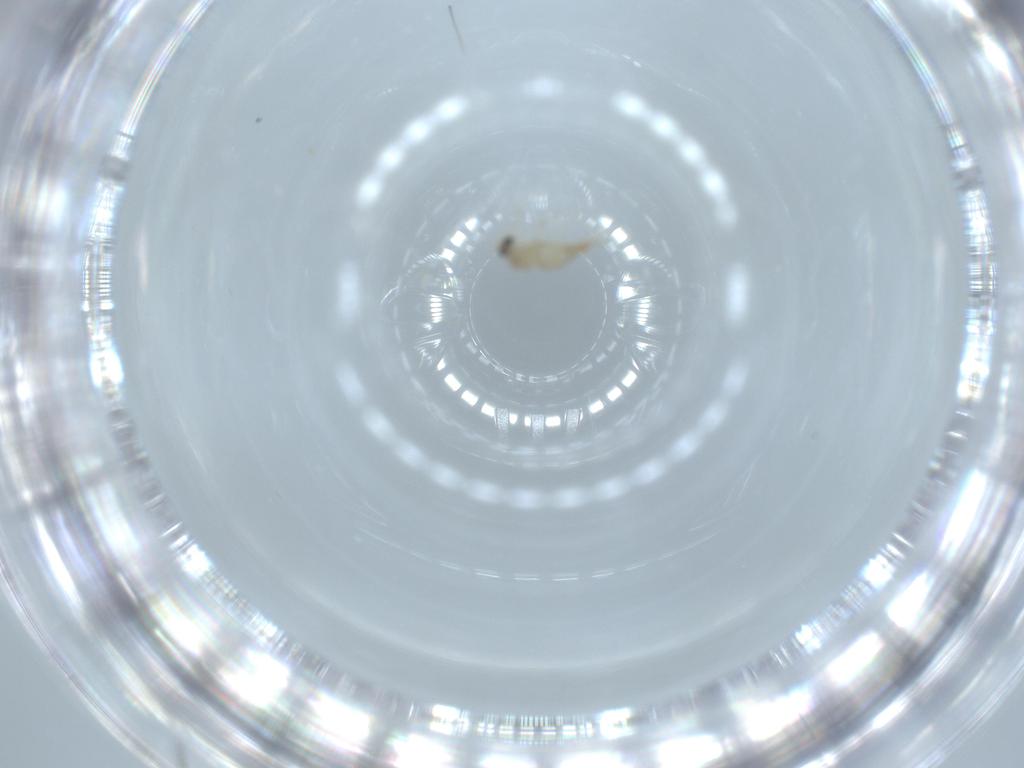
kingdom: Animalia
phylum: Arthropoda
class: Insecta
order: Diptera
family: Cecidomyiidae
